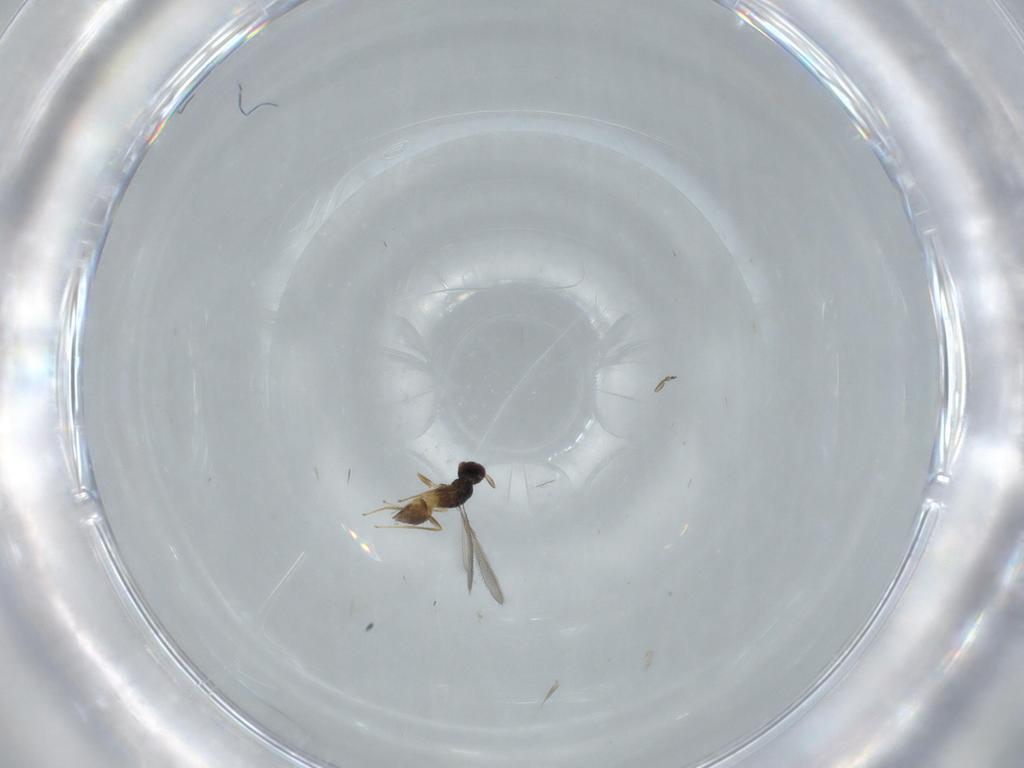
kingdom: Animalia
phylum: Arthropoda
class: Insecta
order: Hymenoptera
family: Mymaridae
